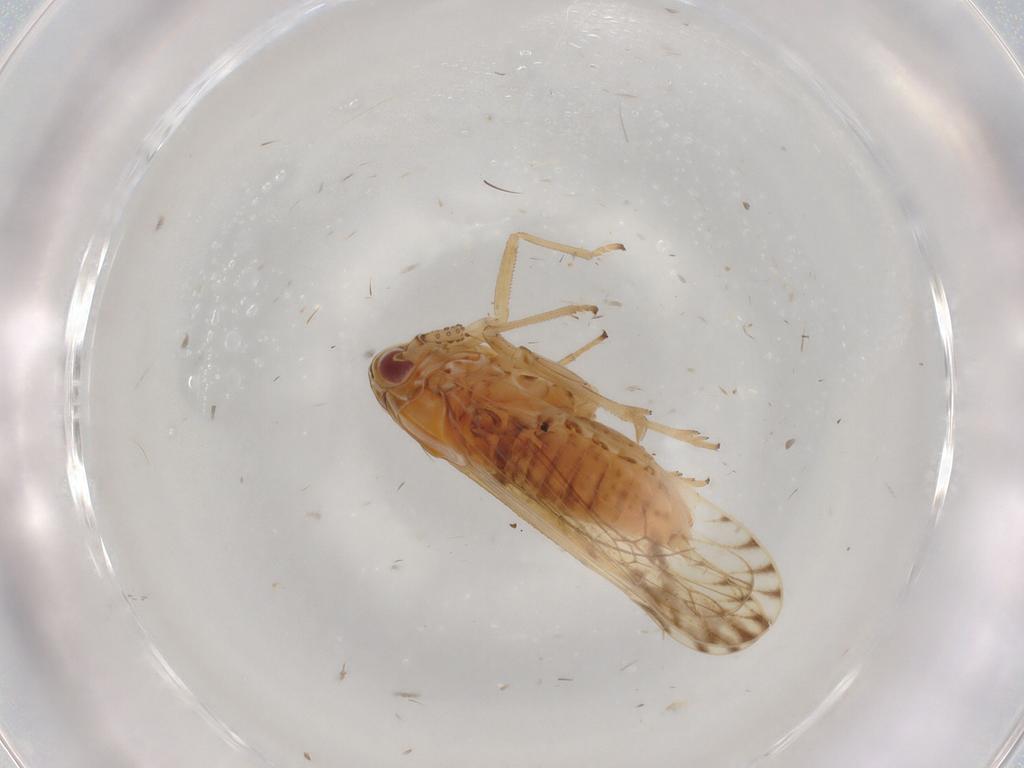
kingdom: Animalia
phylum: Arthropoda
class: Insecta
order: Hemiptera
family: Delphacidae
